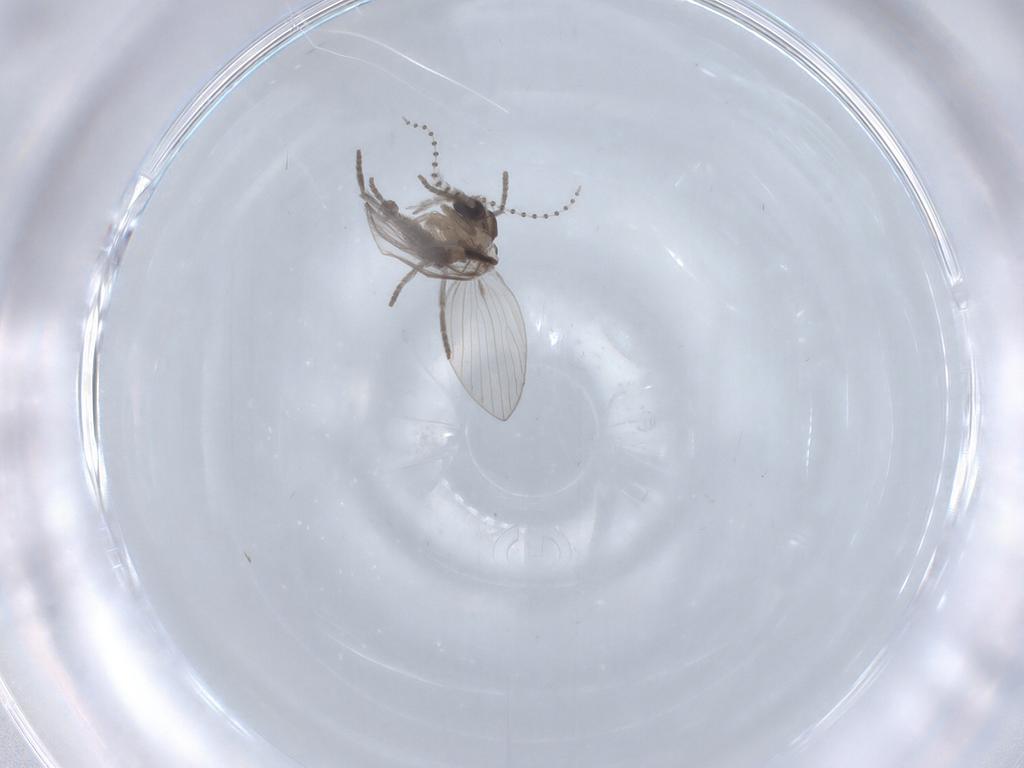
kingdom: Animalia
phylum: Arthropoda
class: Insecta
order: Diptera
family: Psychodidae
